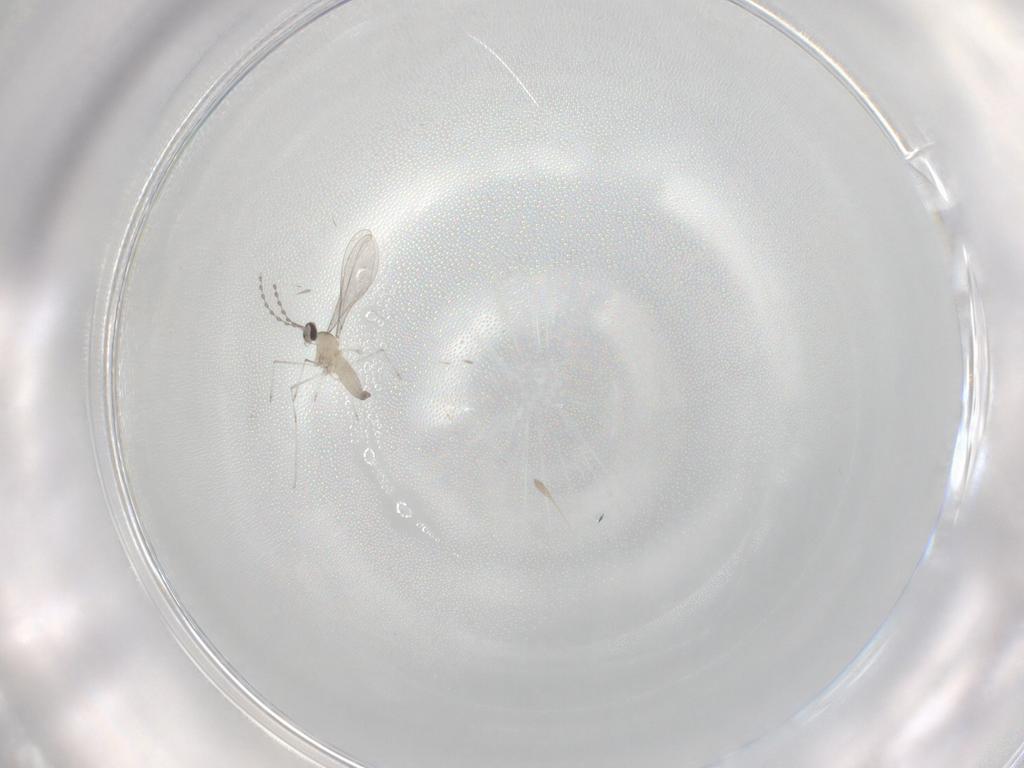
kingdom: Animalia
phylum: Arthropoda
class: Insecta
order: Diptera
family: Cecidomyiidae
